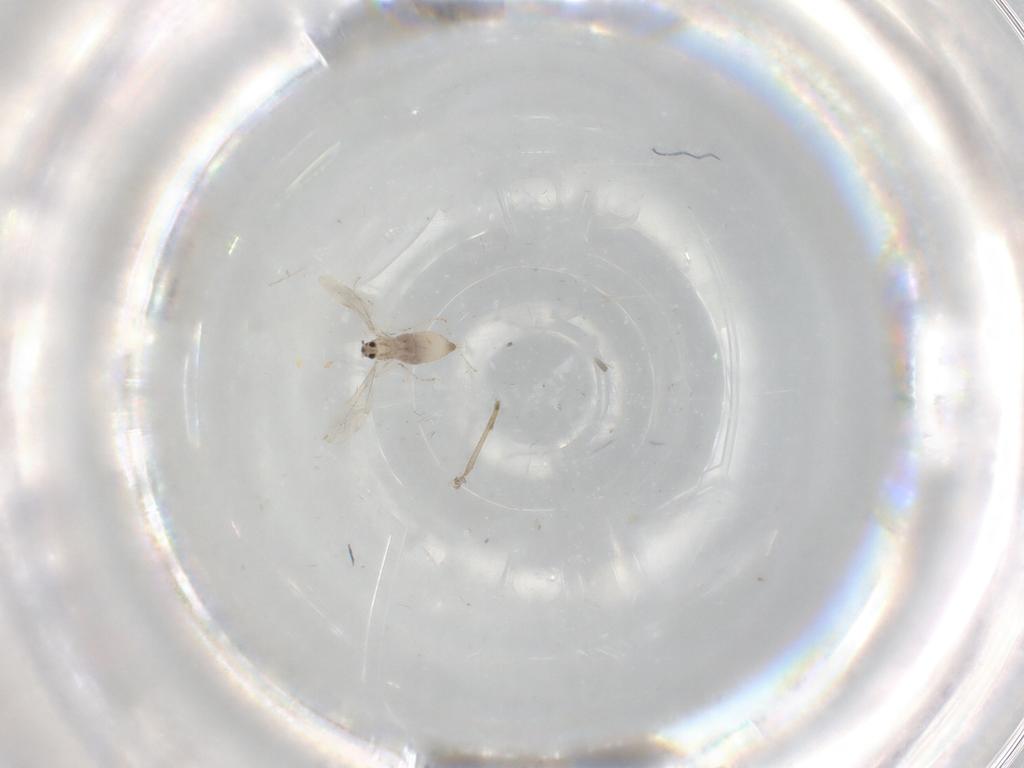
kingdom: Animalia
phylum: Arthropoda
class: Insecta
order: Diptera
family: Cecidomyiidae
